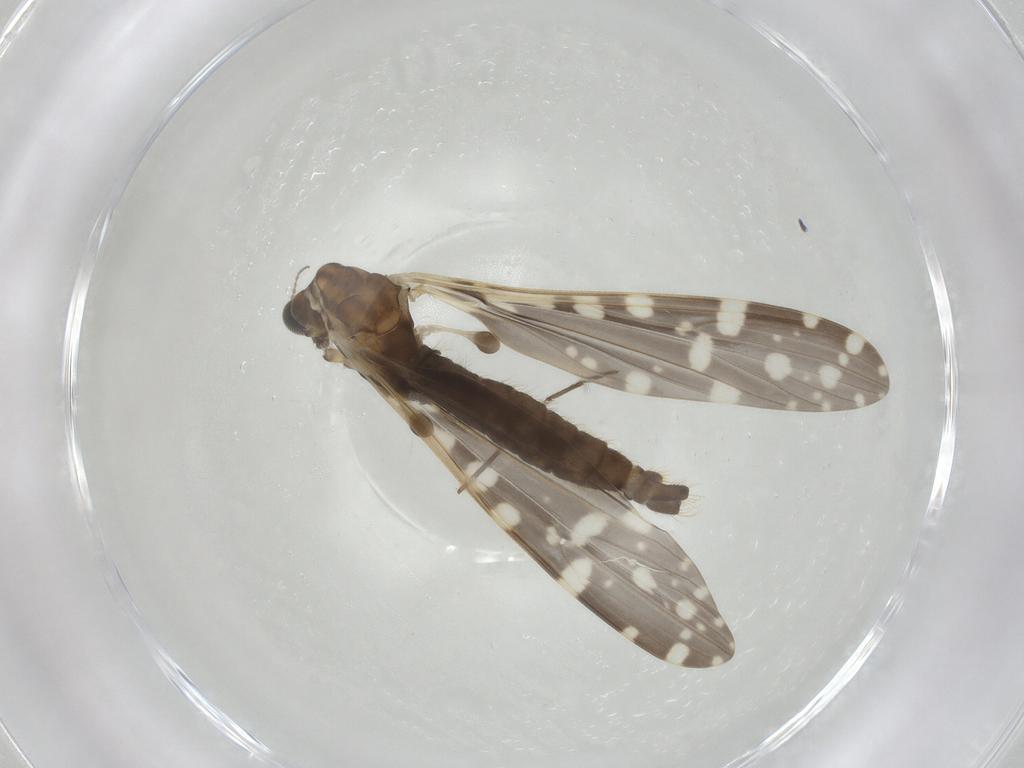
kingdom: Animalia
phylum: Arthropoda
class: Insecta
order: Diptera
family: Limoniidae
